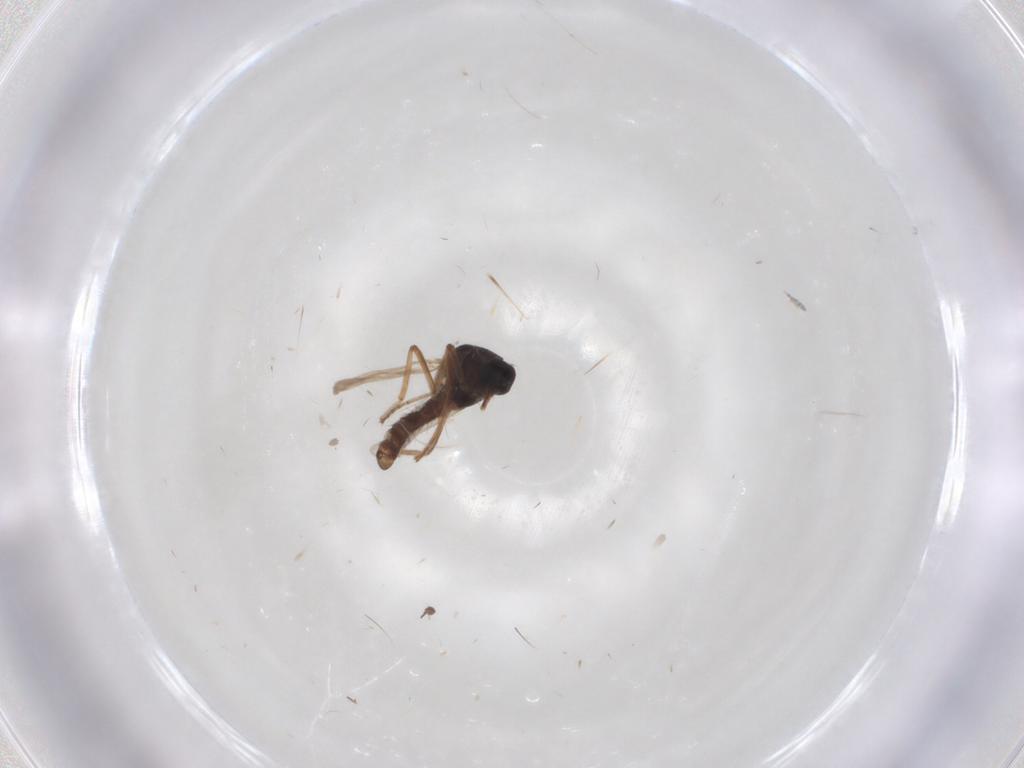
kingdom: Animalia
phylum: Arthropoda
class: Insecta
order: Diptera
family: Ceratopogonidae
